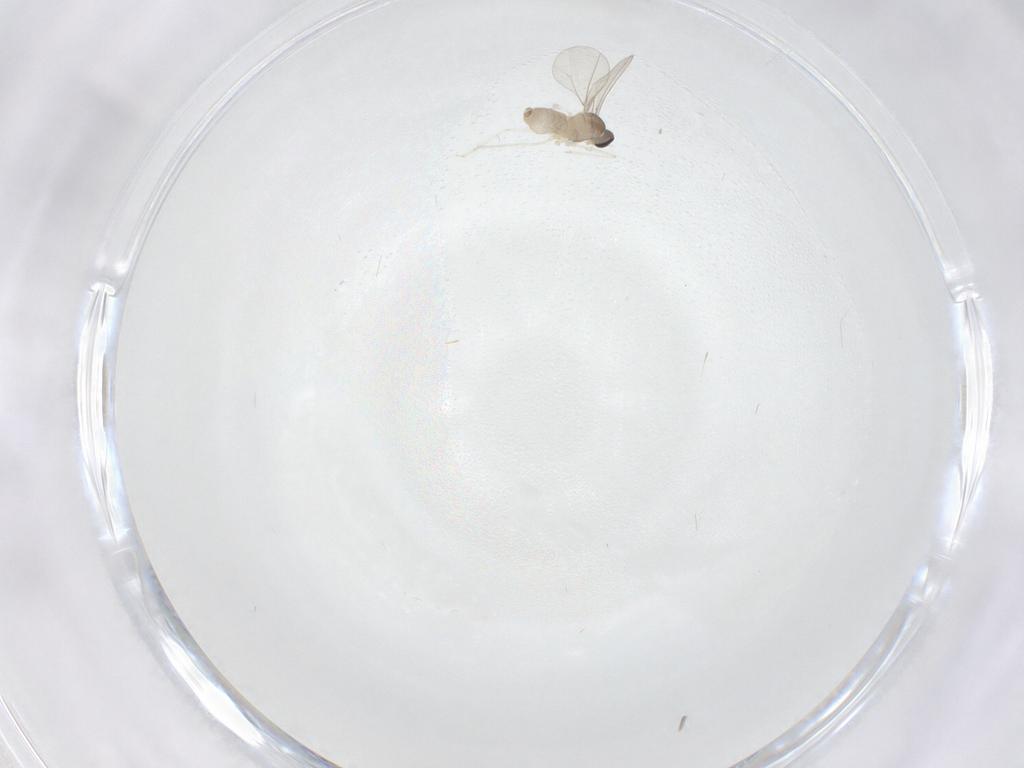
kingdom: Animalia
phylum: Arthropoda
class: Insecta
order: Diptera
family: Cecidomyiidae
